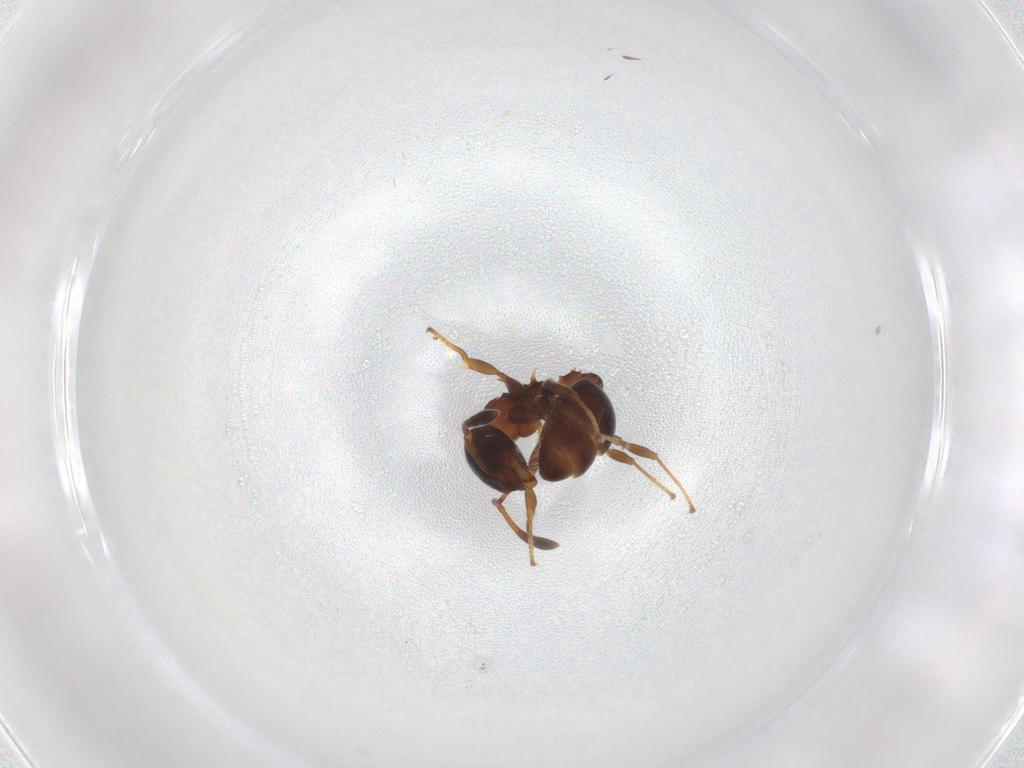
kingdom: Animalia
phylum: Arthropoda
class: Insecta
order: Hymenoptera
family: Formicidae
